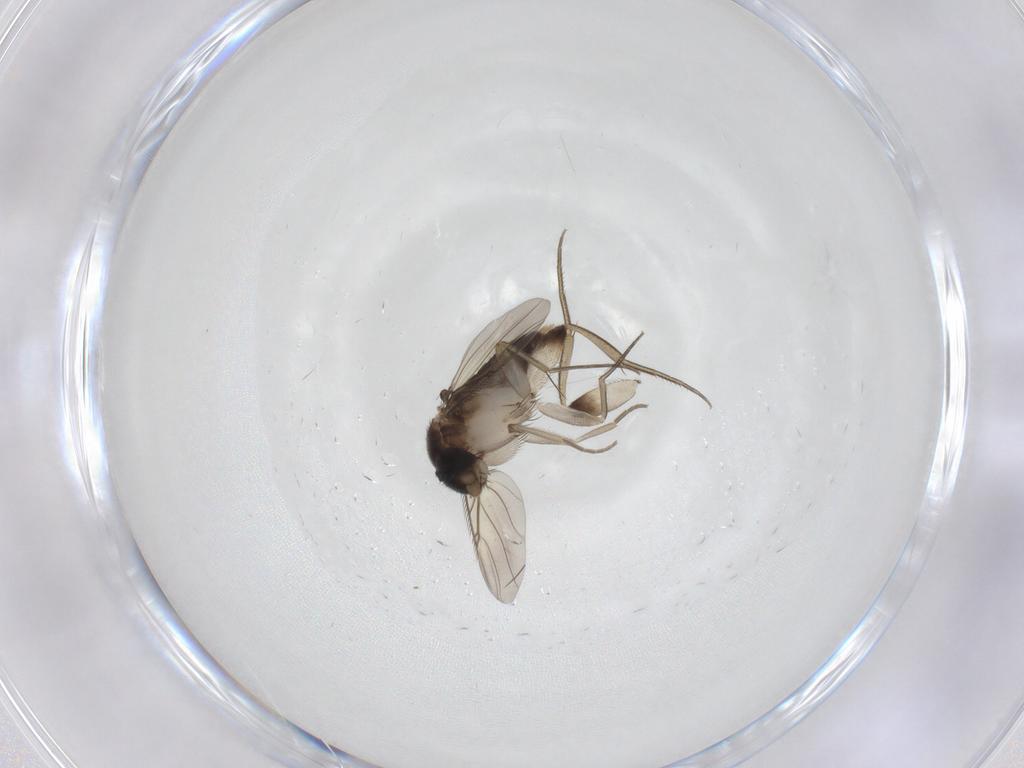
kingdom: Animalia
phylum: Arthropoda
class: Insecta
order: Diptera
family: Phoridae
